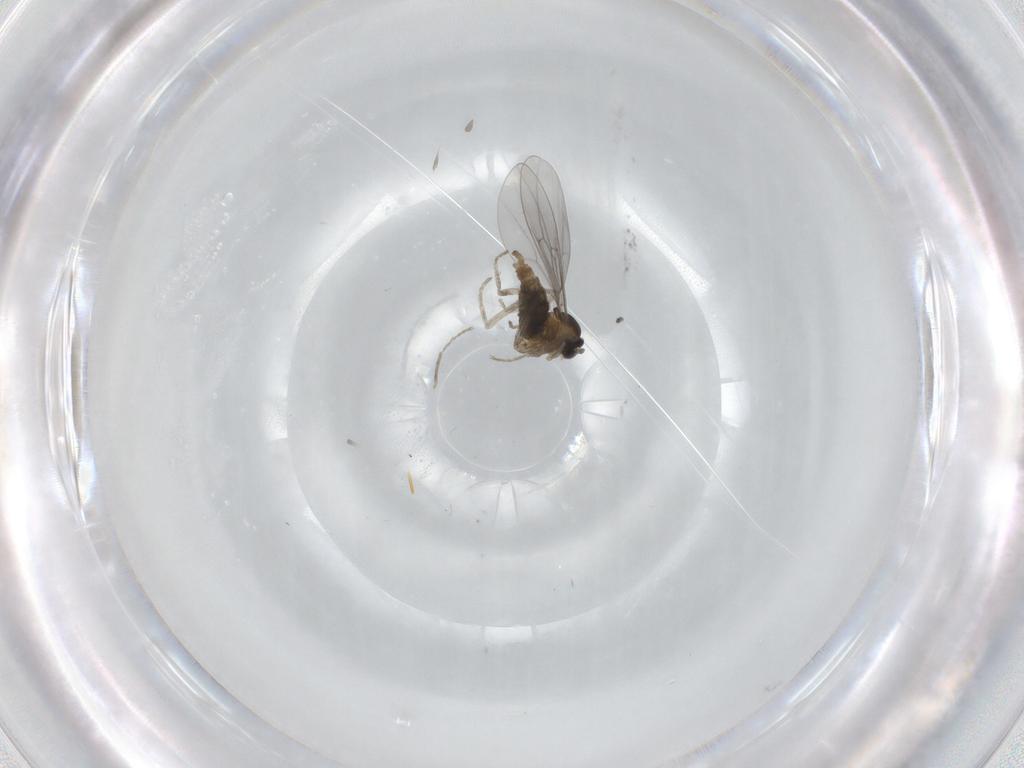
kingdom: Animalia
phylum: Arthropoda
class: Insecta
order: Diptera
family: Cecidomyiidae
